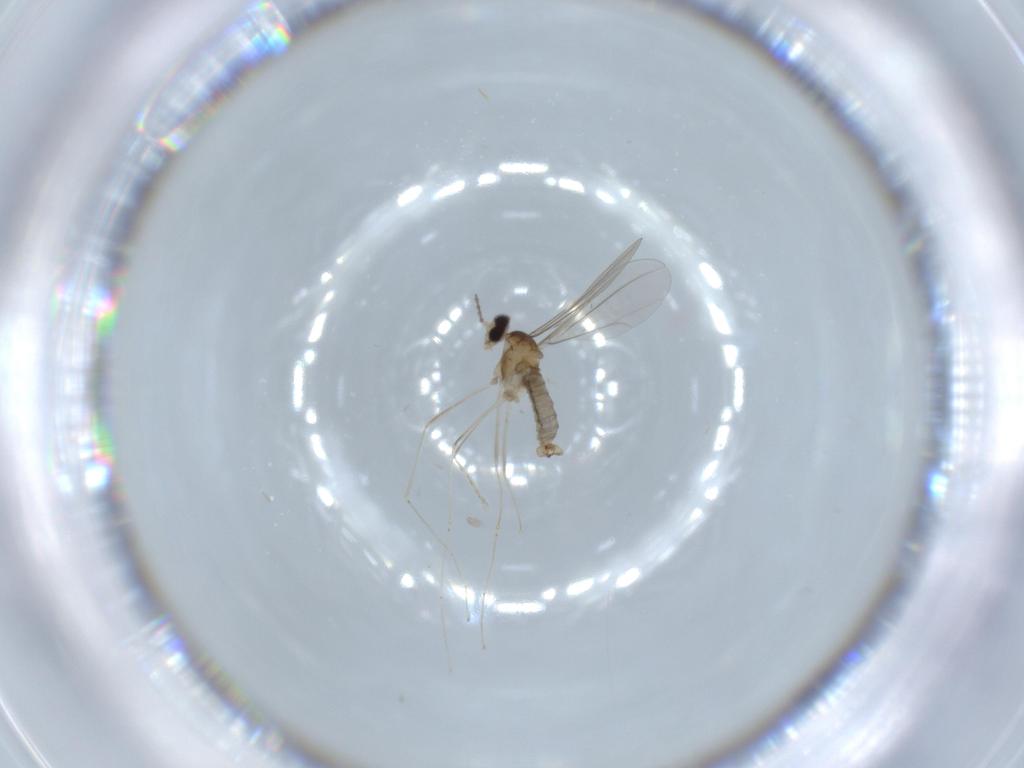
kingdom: Animalia
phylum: Arthropoda
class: Insecta
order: Diptera
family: Cecidomyiidae
